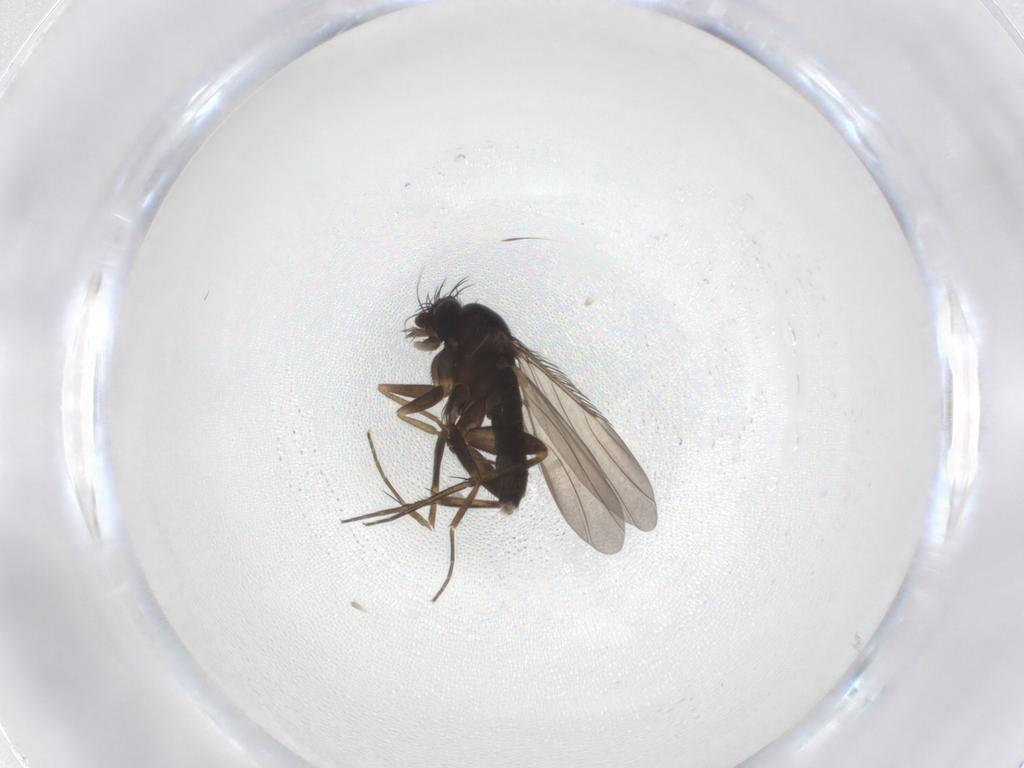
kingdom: Animalia
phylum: Arthropoda
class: Insecta
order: Diptera
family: Phoridae
